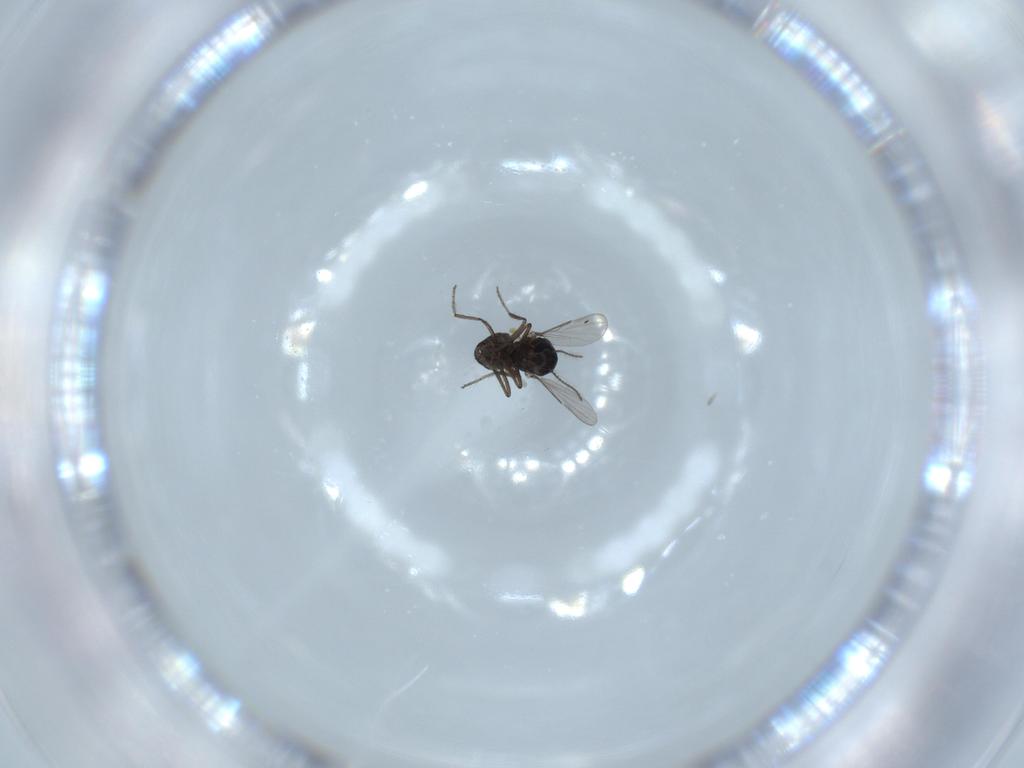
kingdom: Animalia
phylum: Arthropoda
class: Insecta
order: Diptera
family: Ceratopogonidae
